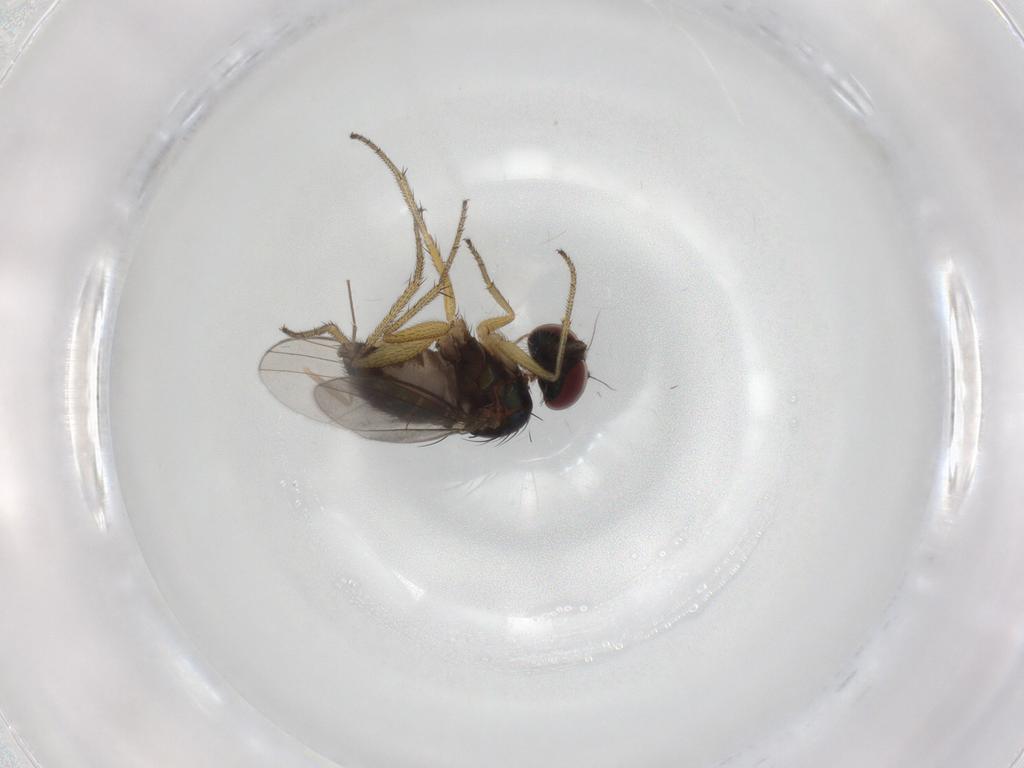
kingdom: Animalia
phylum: Arthropoda
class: Insecta
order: Diptera
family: Dolichopodidae
